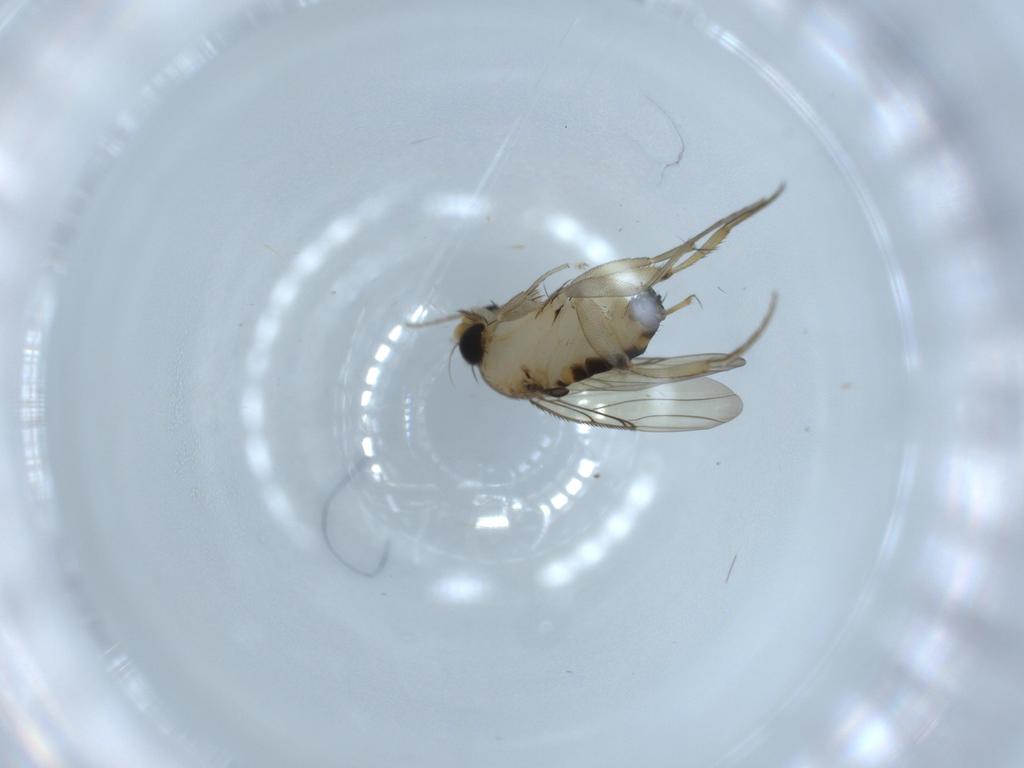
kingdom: Animalia
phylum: Arthropoda
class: Insecta
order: Diptera
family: Phoridae
